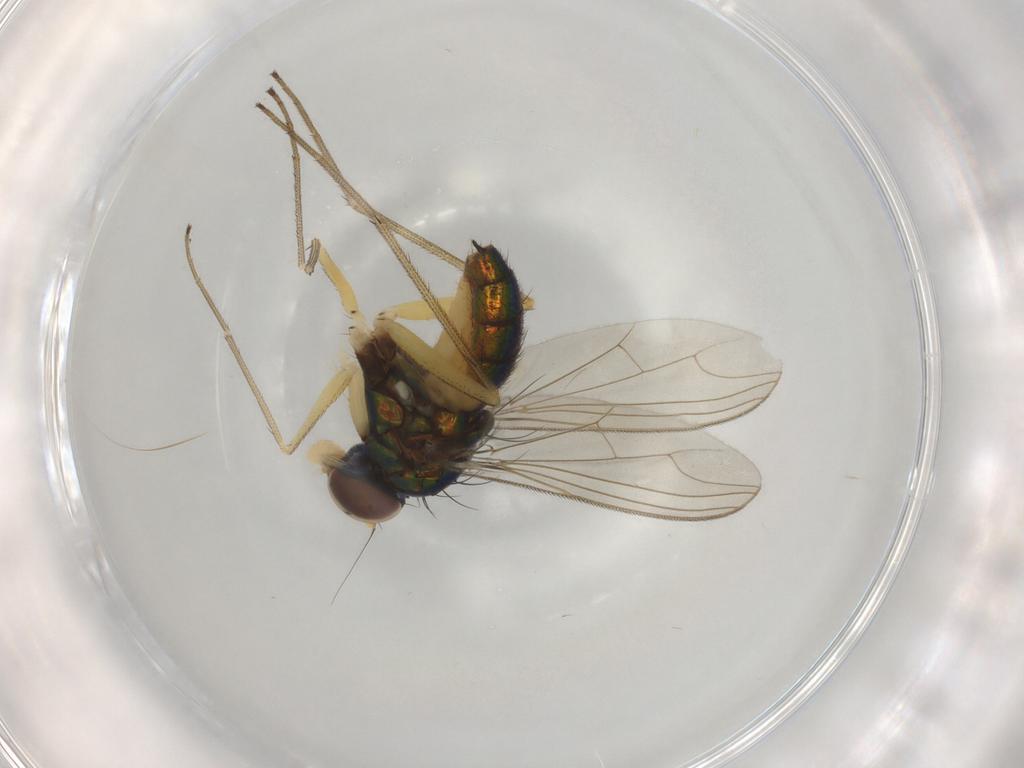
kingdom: Animalia
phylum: Arthropoda
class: Insecta
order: Diptera
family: Dolichopodidae
